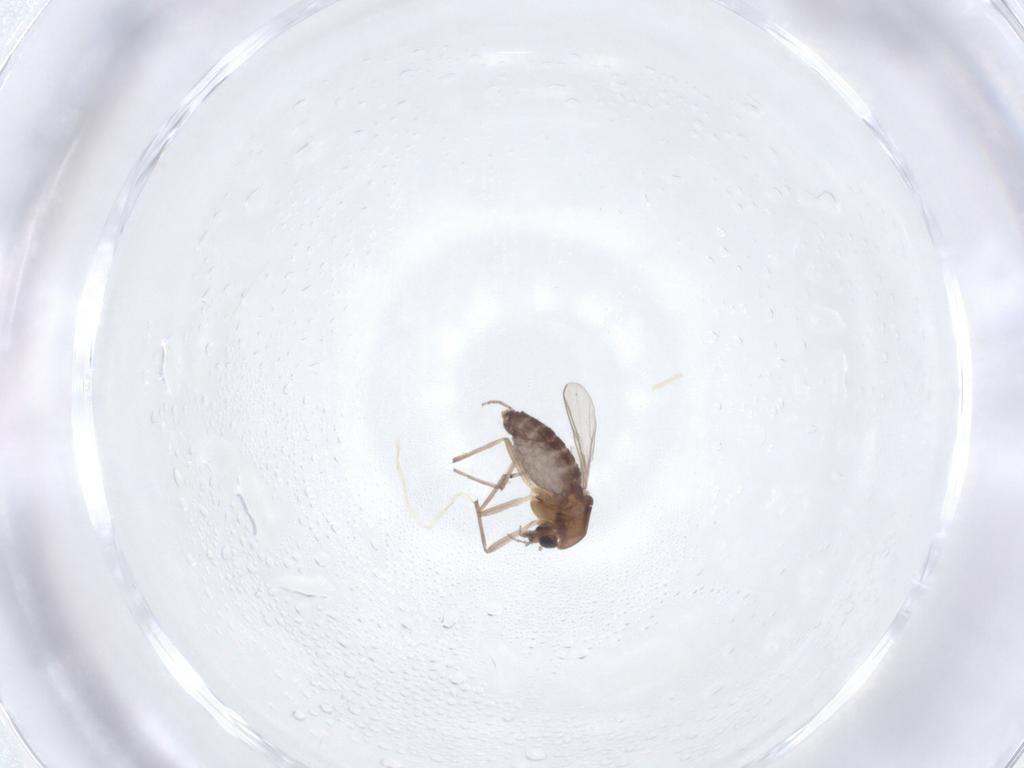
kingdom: Animalia
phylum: Arthropoda
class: Insecta
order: Diptera
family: Chironomidae
